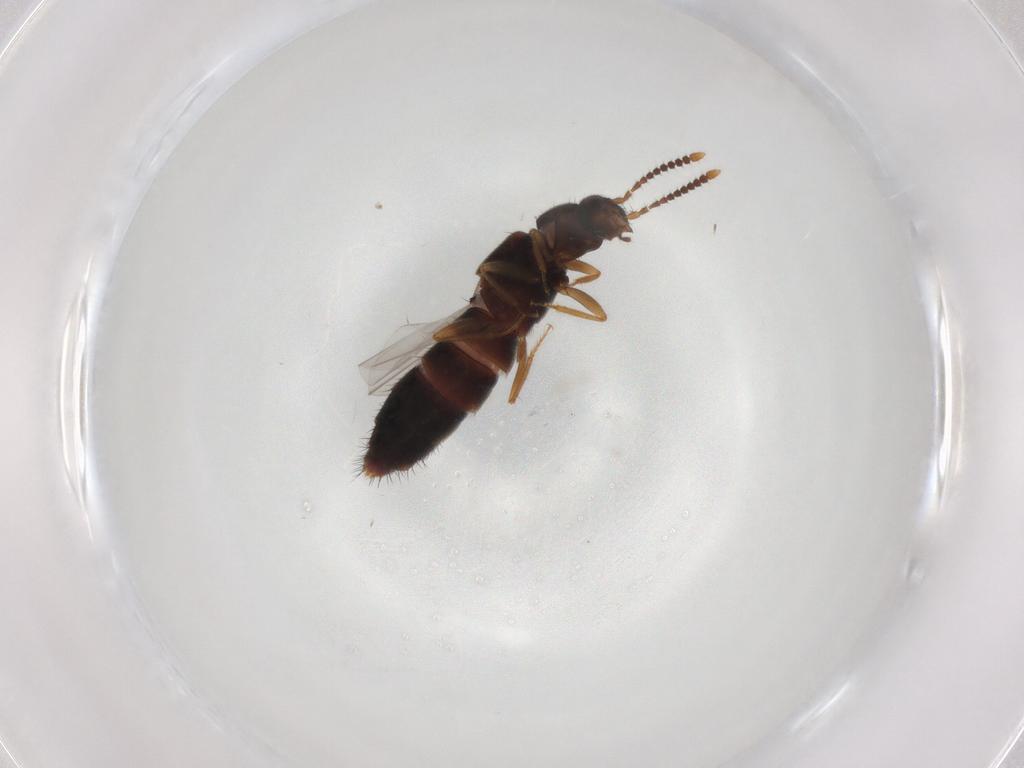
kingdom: Animalia
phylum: Arthropoda
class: Insecta
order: Coleoptera
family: Staphylinidae
